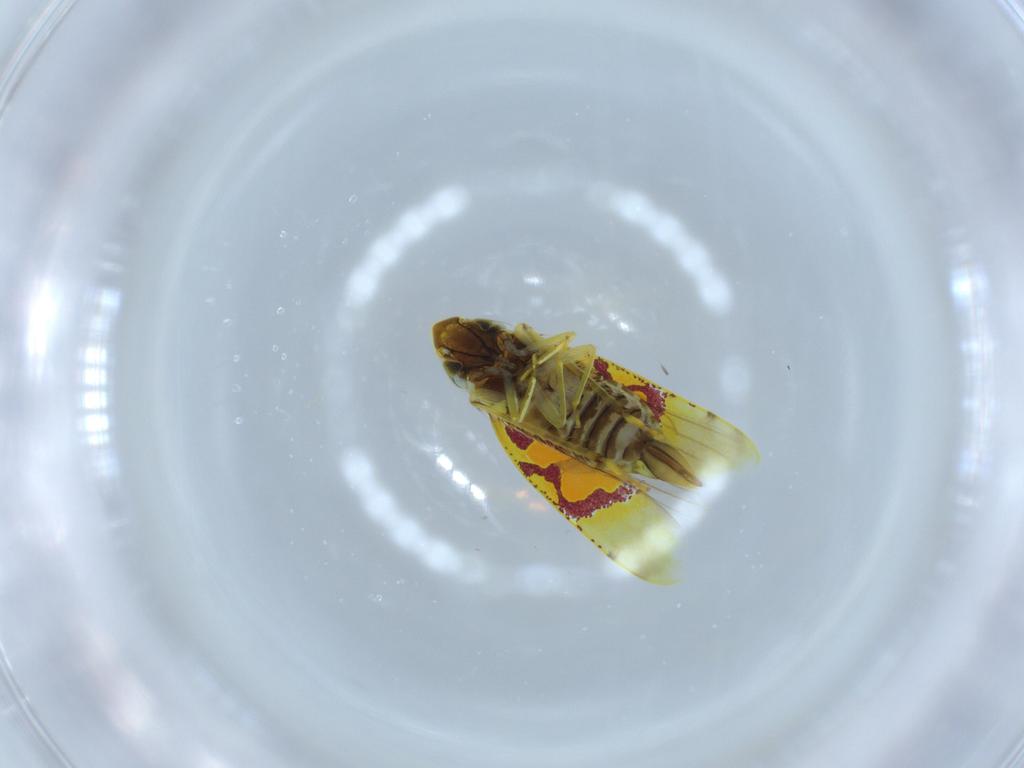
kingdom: Animalia
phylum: Arthropoda
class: Insecta
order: Hemiptera
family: Cicadellidae
